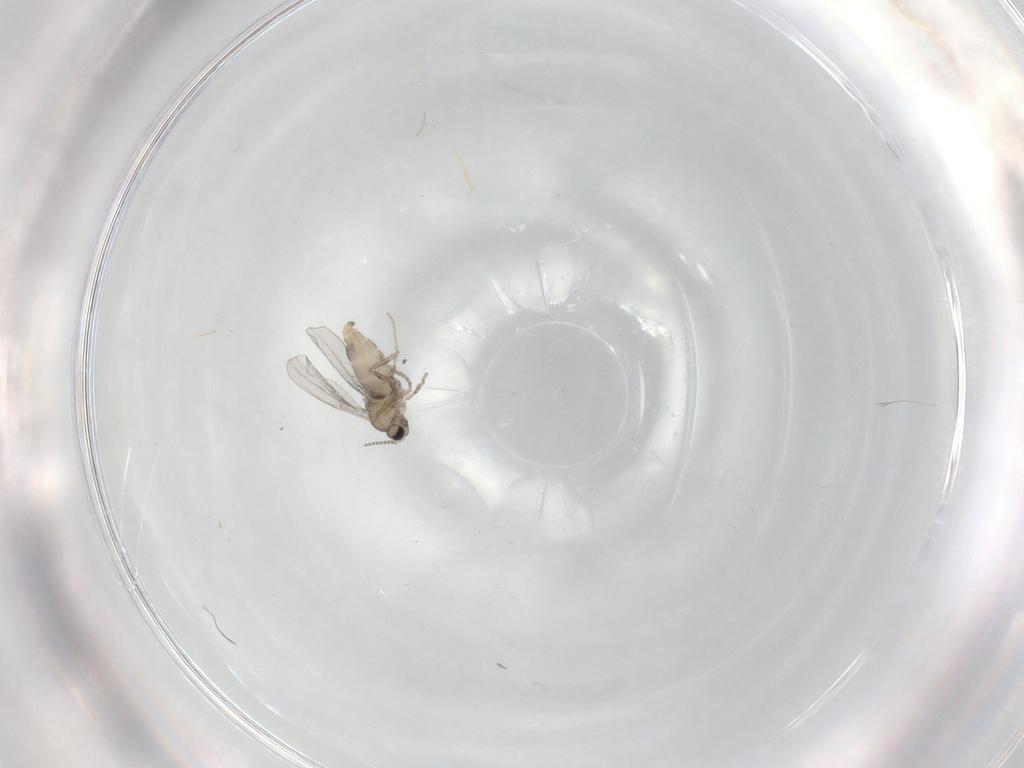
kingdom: Animalia
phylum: Arthropoda
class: Insecta
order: Diptera
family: Cecidomyiidae
